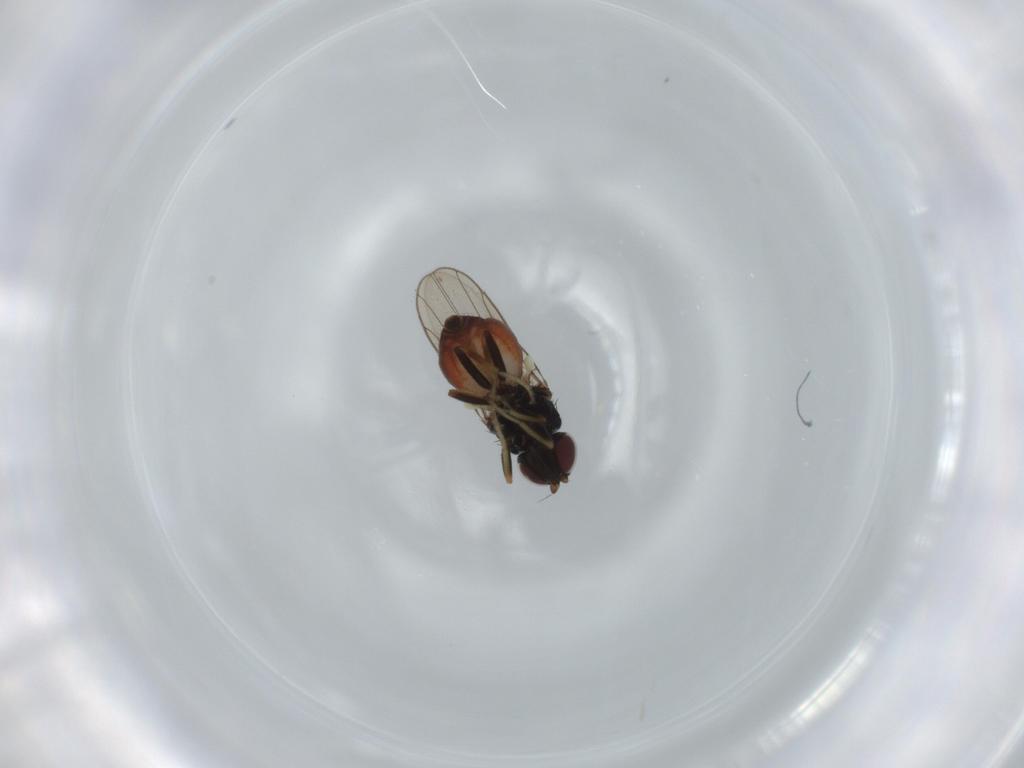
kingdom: Animalia
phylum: Arthropoda
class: Insecta
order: Diptera
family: Chloropidae
